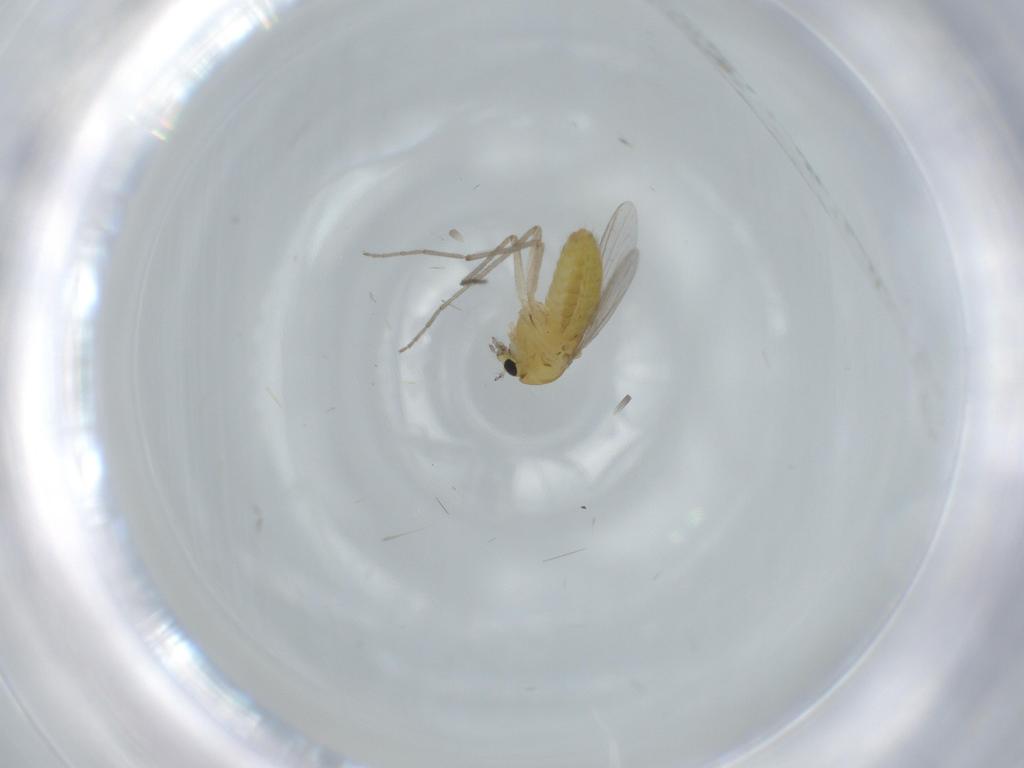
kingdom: Animalia
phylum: Arthropoda
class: Insecta
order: Diptera
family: Chironomidae
